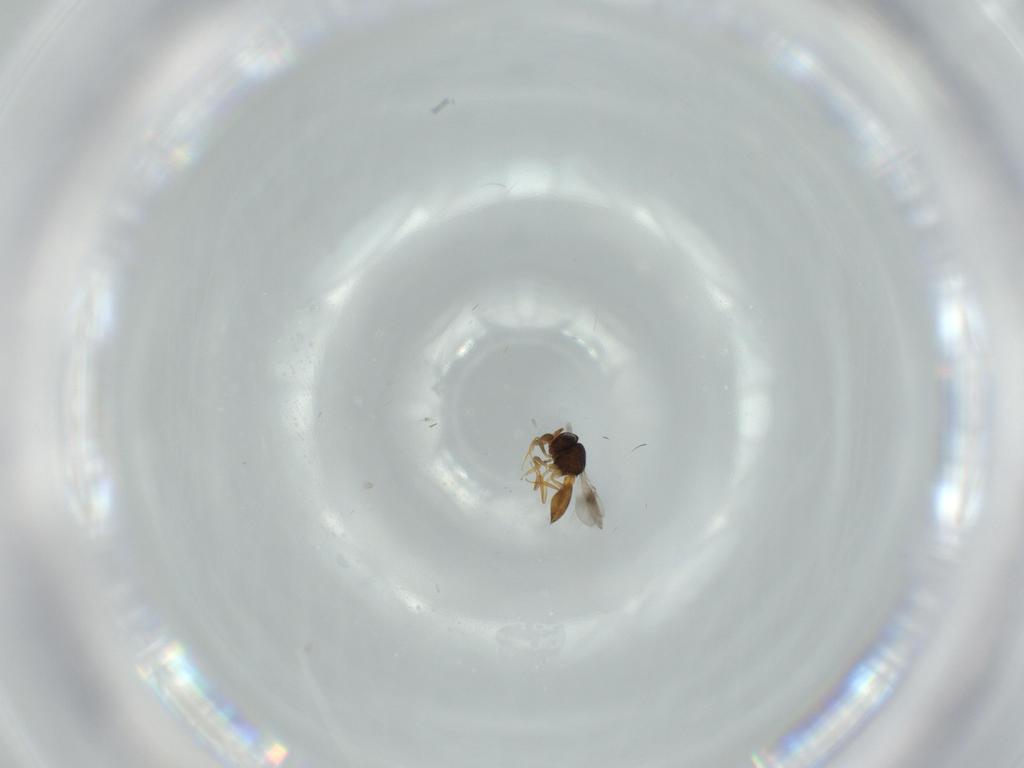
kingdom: Animalia
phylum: Arthropoda
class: Insecta
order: Hymenoptera
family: Scelionidae
